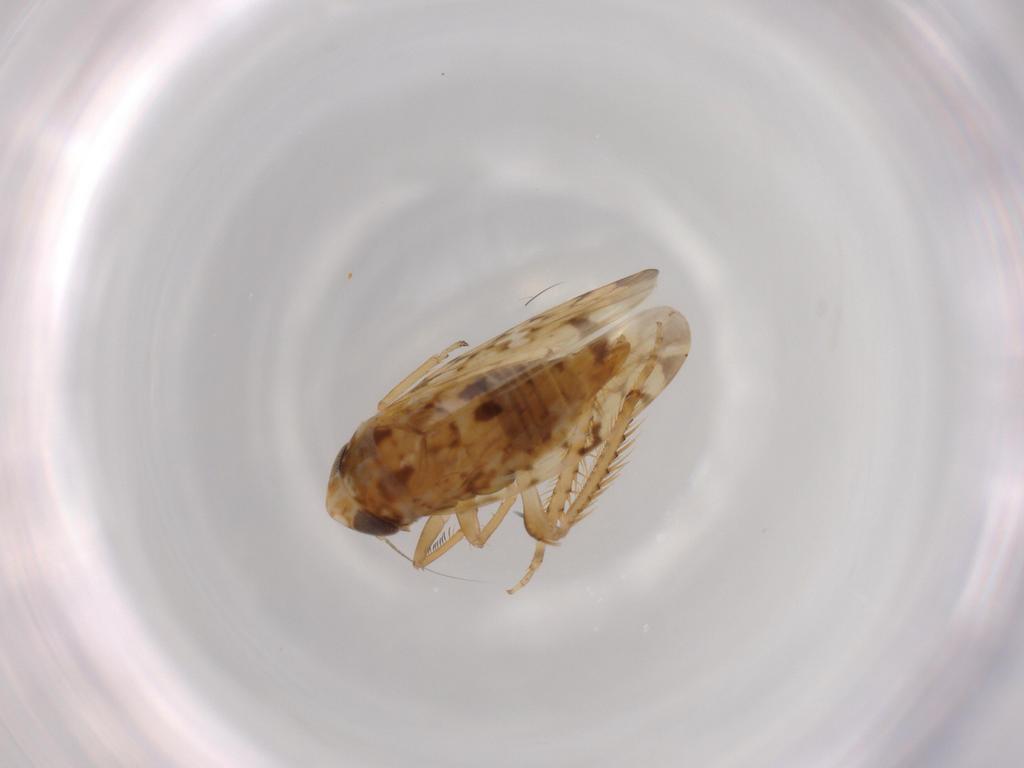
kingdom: Animalia
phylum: Arthropoda
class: Insecta
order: Hemiptera
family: Cicadellidae
